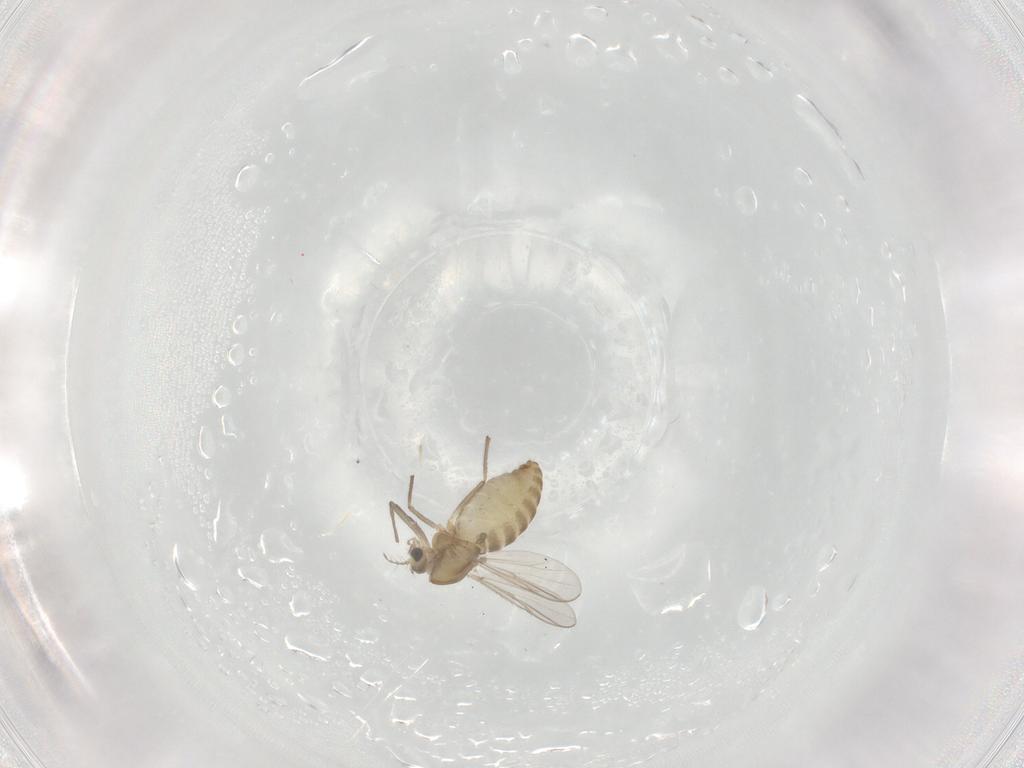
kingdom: Animalia
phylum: Arthropoda
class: Insecta
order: Diptera
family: Chironomidae
